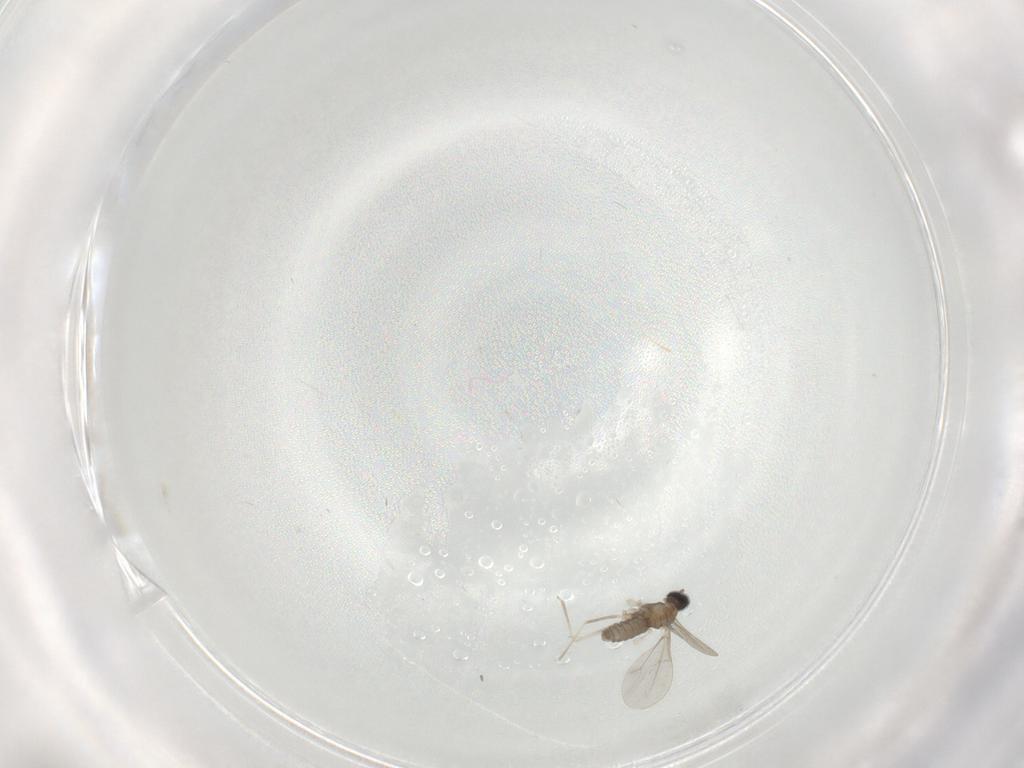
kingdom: Animalia
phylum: Arthropoda
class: Insecta
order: Diptera
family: Cecidomyiidae
